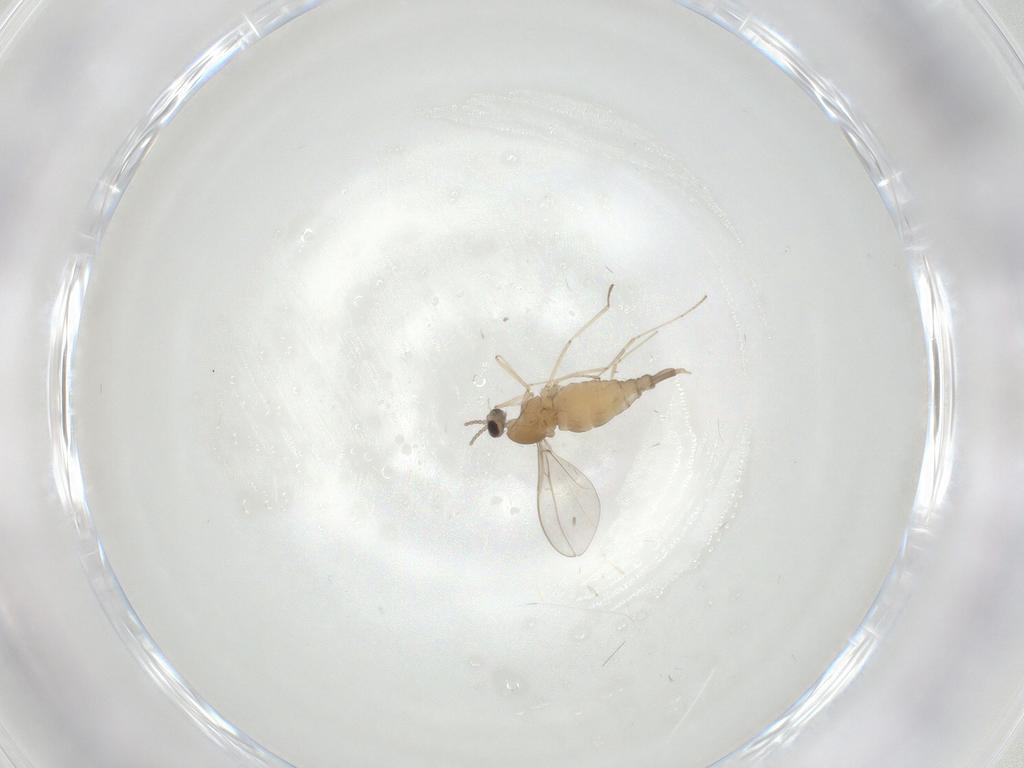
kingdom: Animalia
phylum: Arthropoda
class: Insecta
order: Diptera
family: Cecidomyiidae
